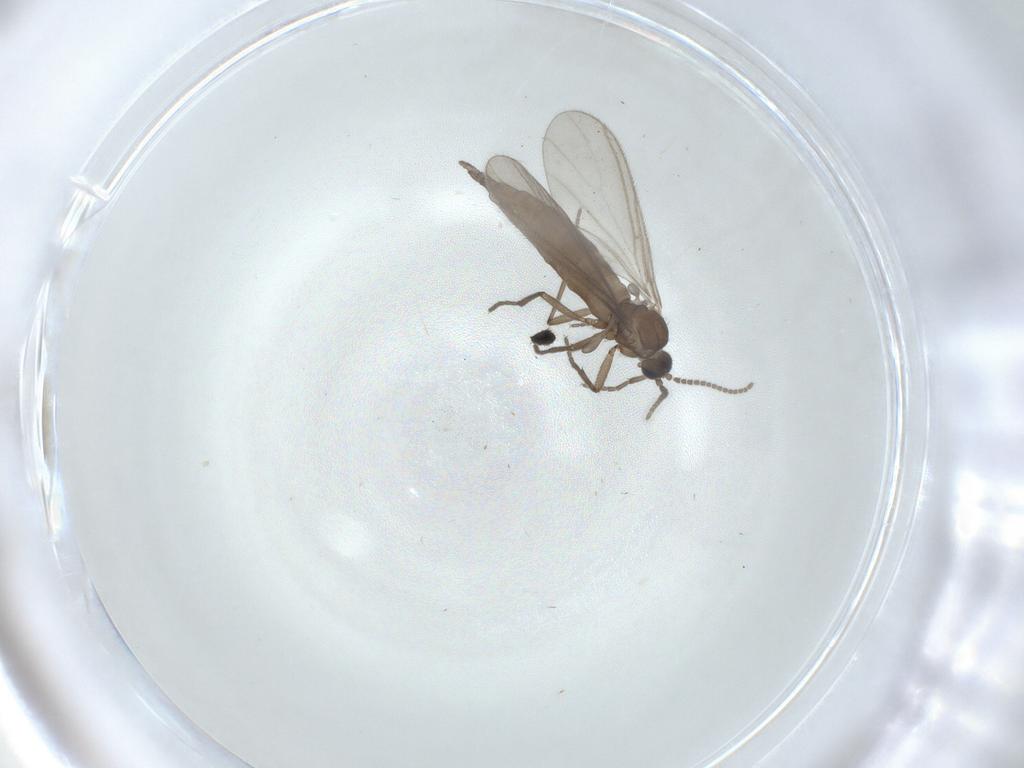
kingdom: Animalia
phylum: Arthropoda
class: Insecta
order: Diptera
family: Sciaridae
